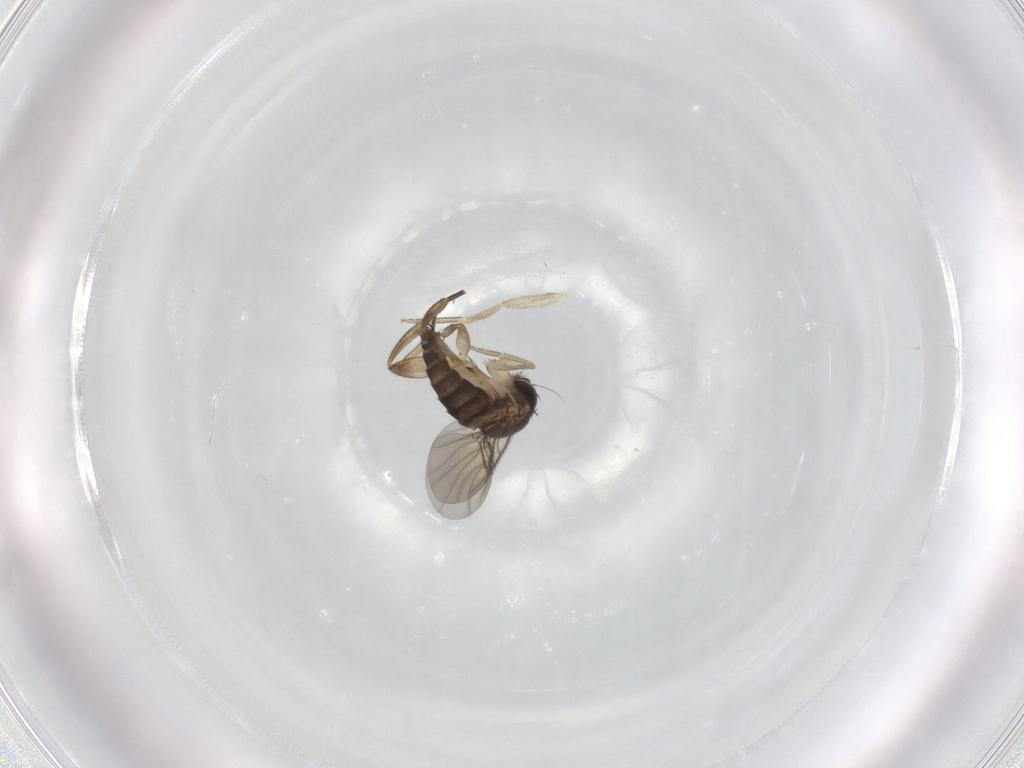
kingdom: Animalia
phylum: Arthropoda
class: Insecta
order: Diptera
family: Phoridae
